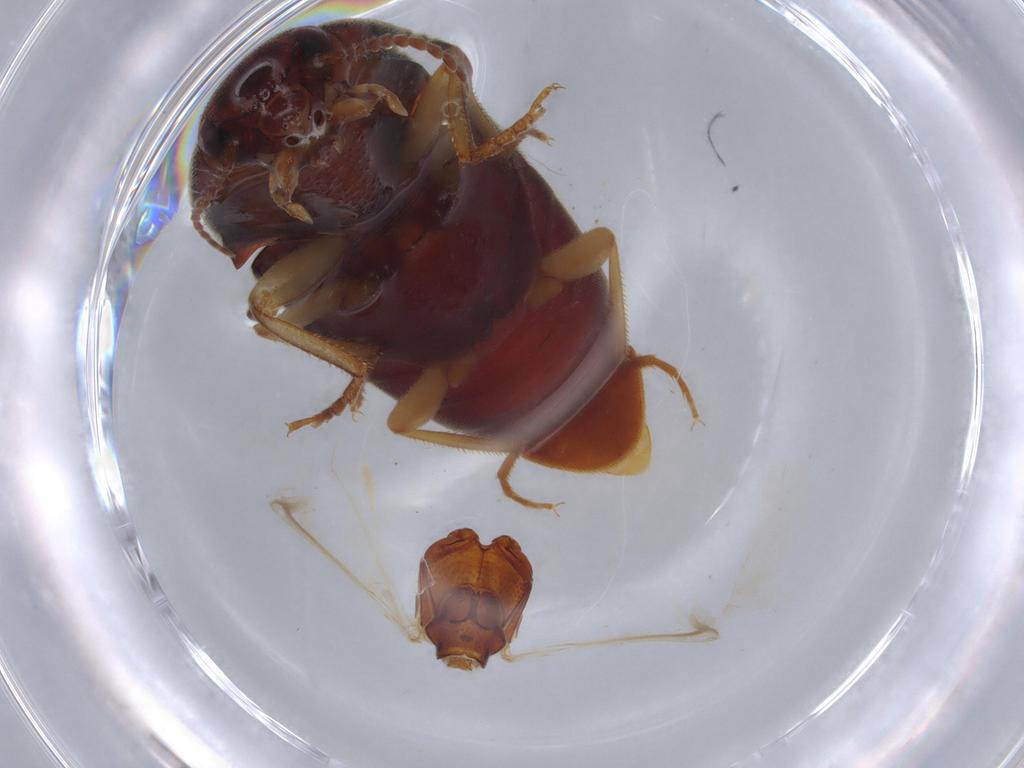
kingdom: Animalia
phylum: Arthropoda
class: Insecta
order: Coleoptera
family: Elateridae
